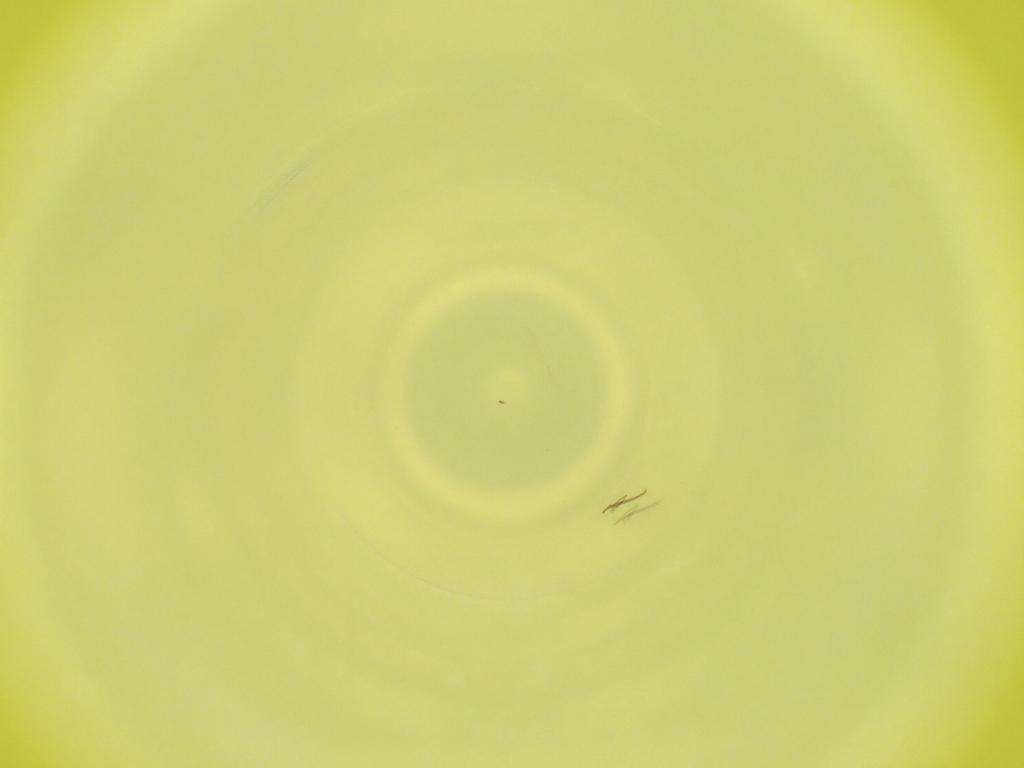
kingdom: Animalia
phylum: Arthropoda
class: Insecta
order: Diptera
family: Cecidomyiidae
